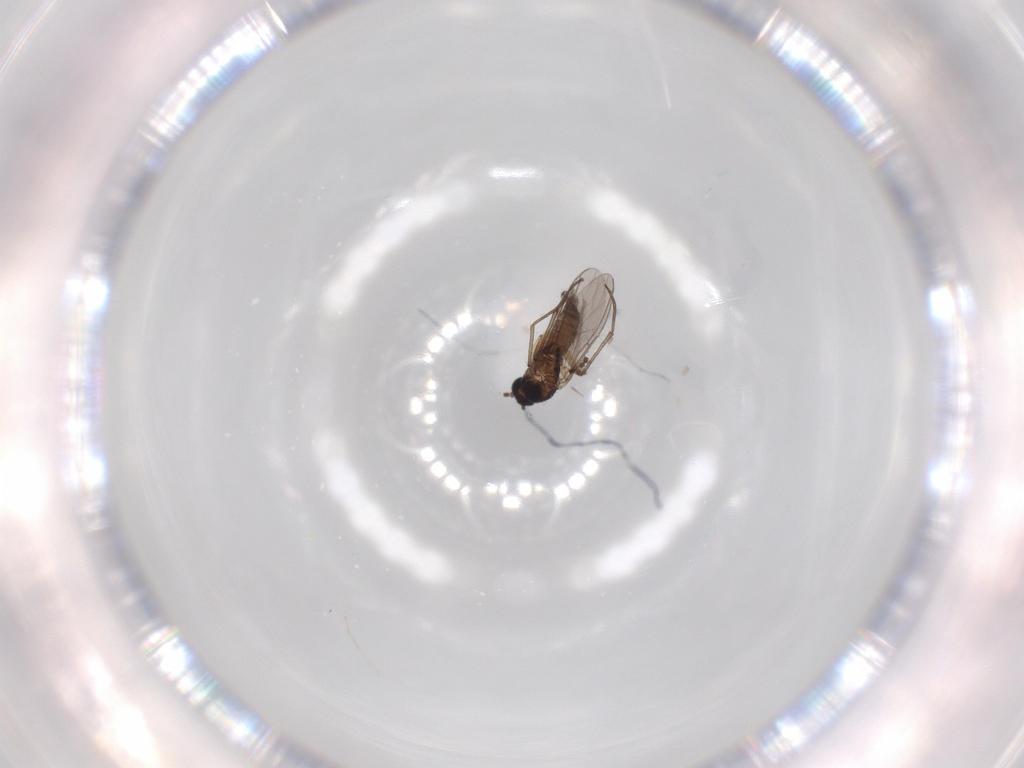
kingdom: Animalia
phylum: Arthropoda
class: Insecta
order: Diptera
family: Sciaridae
